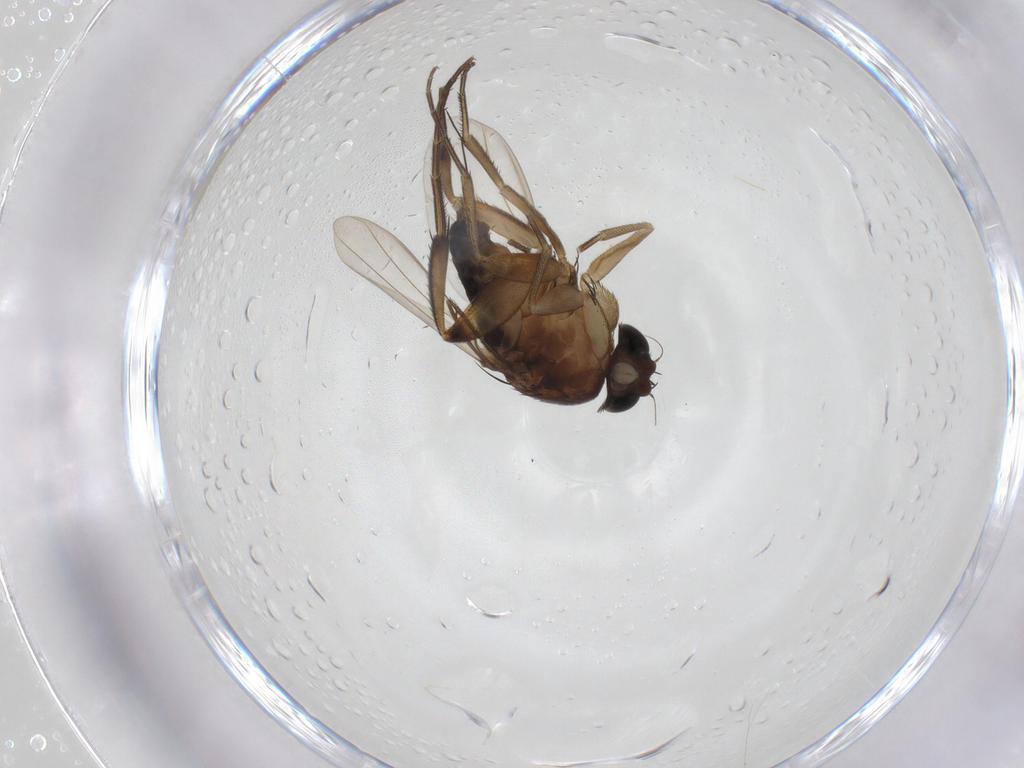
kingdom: Animalia
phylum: Arthropoda
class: Insecta
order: Diptera
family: Phoridae
